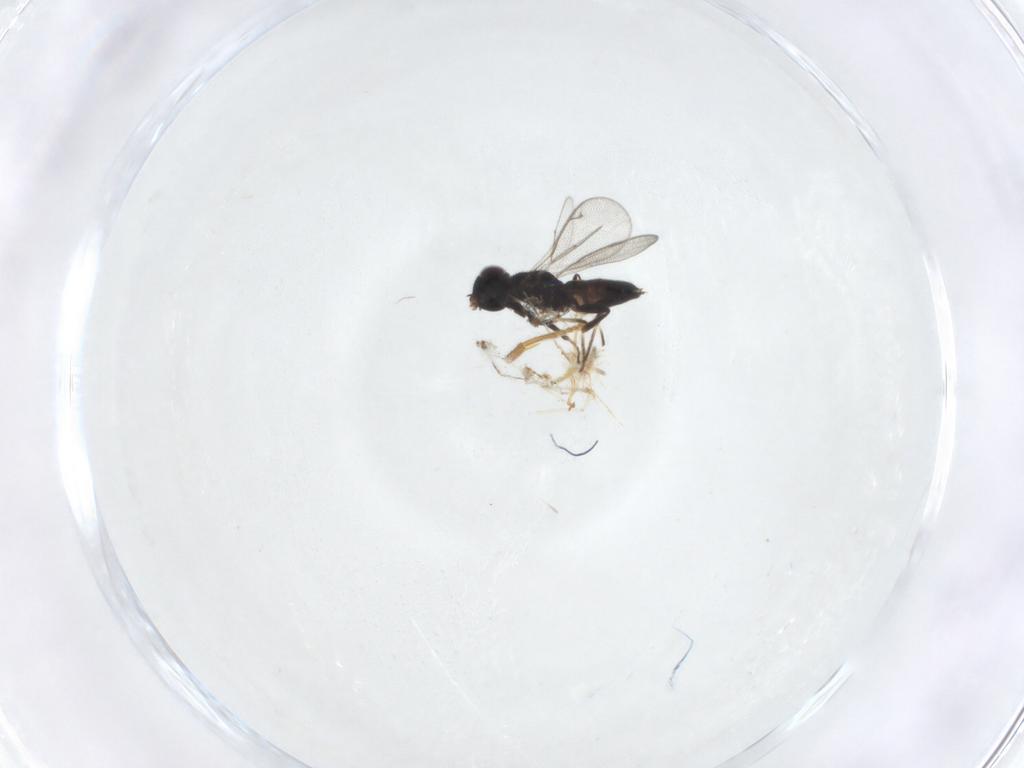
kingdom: Animalia
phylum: Arthropoda
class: Insecta
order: Hymenoptera
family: Formicidae
